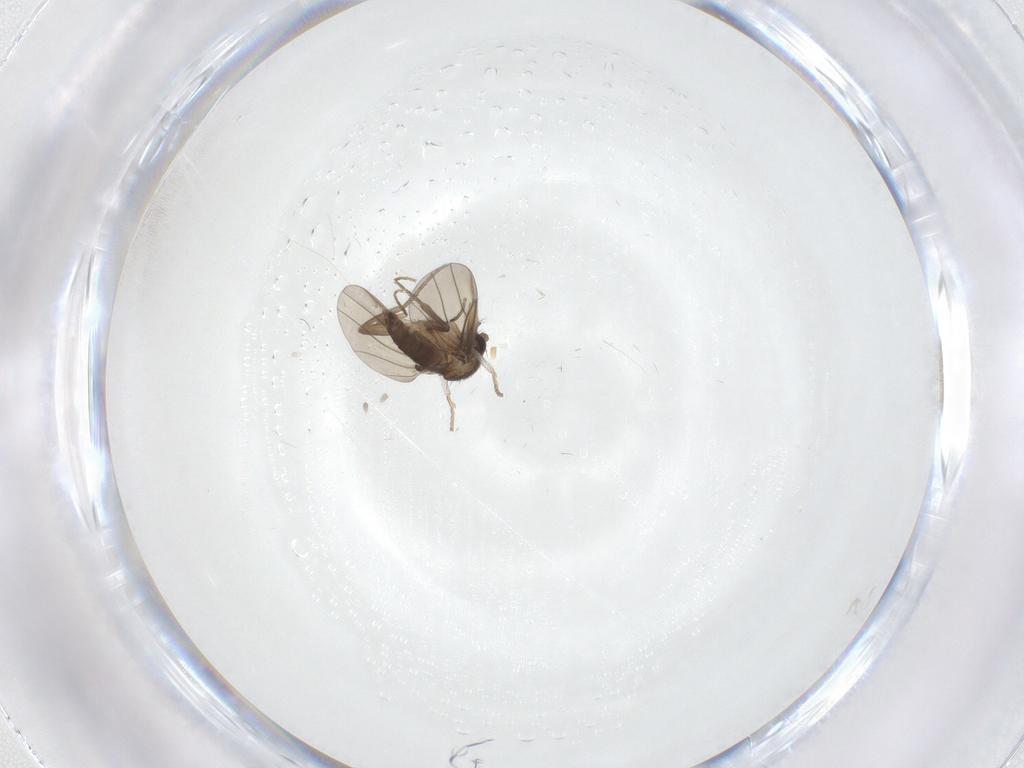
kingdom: Animalia
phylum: Arthropoda
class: Insecta
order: Diptera
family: Phoridae
